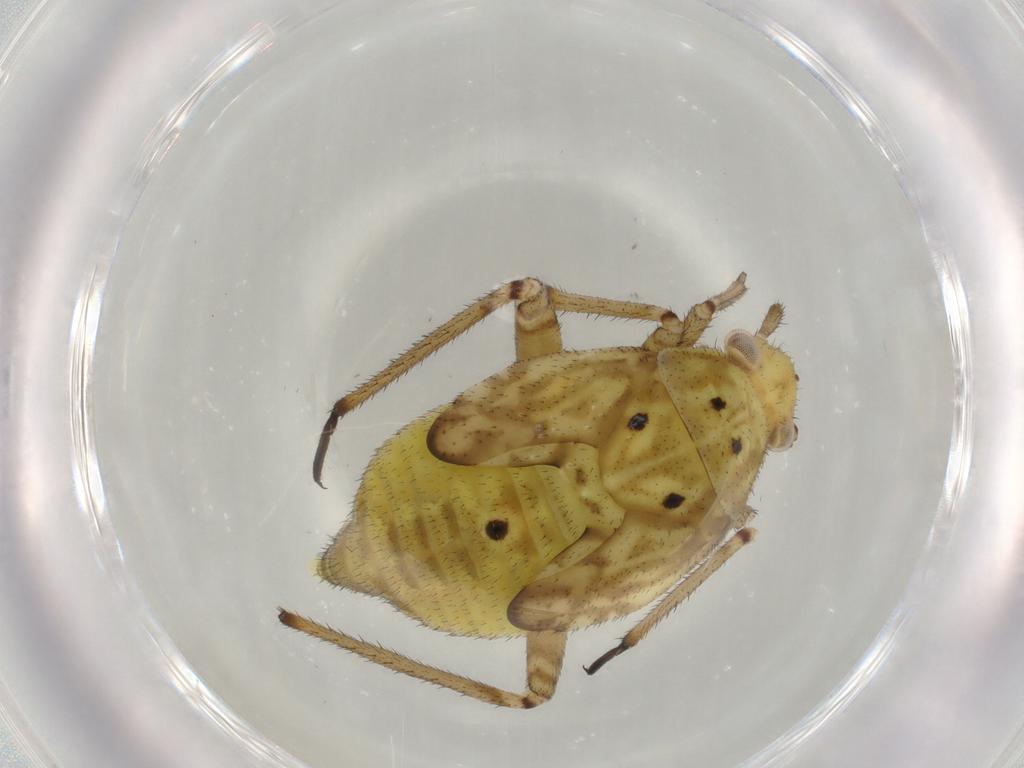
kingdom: Animalia
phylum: Arthropoda
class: Insecta
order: Hemiptera
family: Miridae
